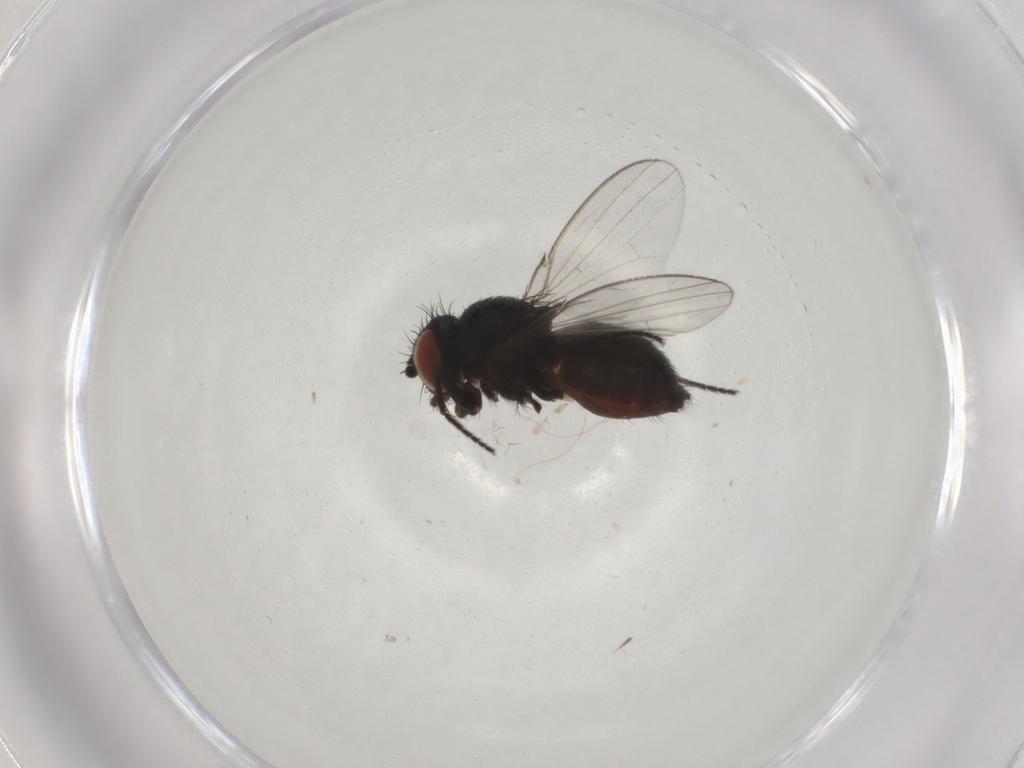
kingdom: Animalia
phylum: Arthropoda
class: Insecta
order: Diptera
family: Milichiidae
